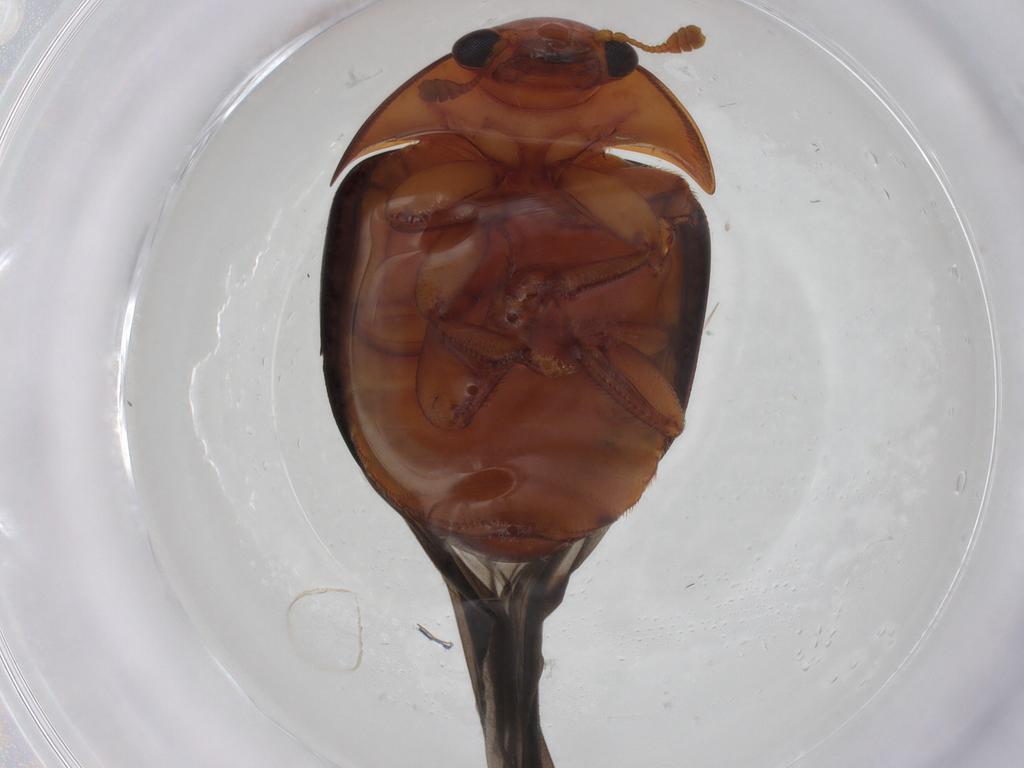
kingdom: Animalia
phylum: Arthropoda
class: Insecta
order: Coleoptera
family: Nitidulidae
